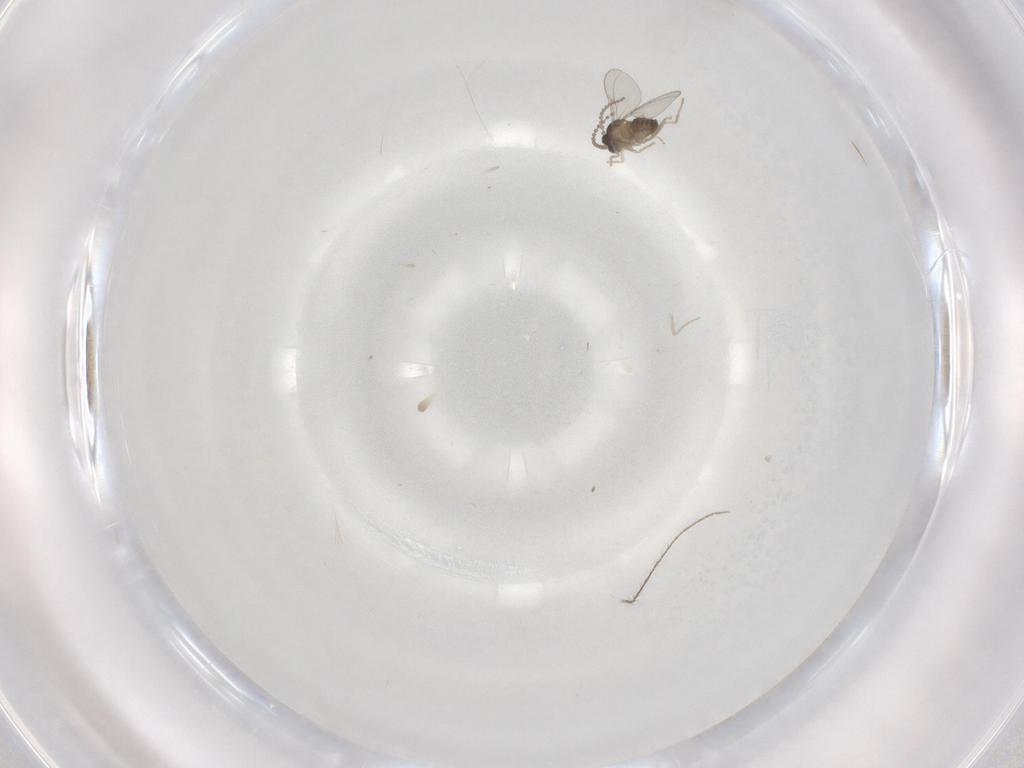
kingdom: Animalia
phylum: Arthropoda
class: Insecta
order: Diptera
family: Cecidomyiidae
